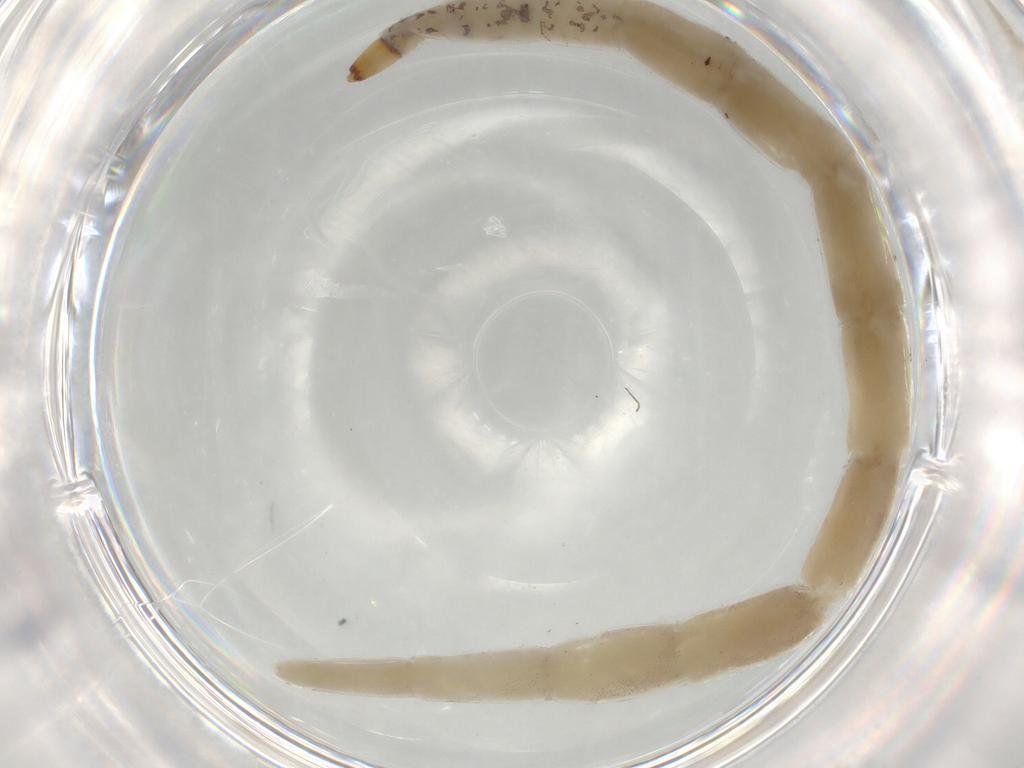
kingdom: Animalia
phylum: Arthropoda
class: Insecta
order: Diptera
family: Ceratopogonidae
